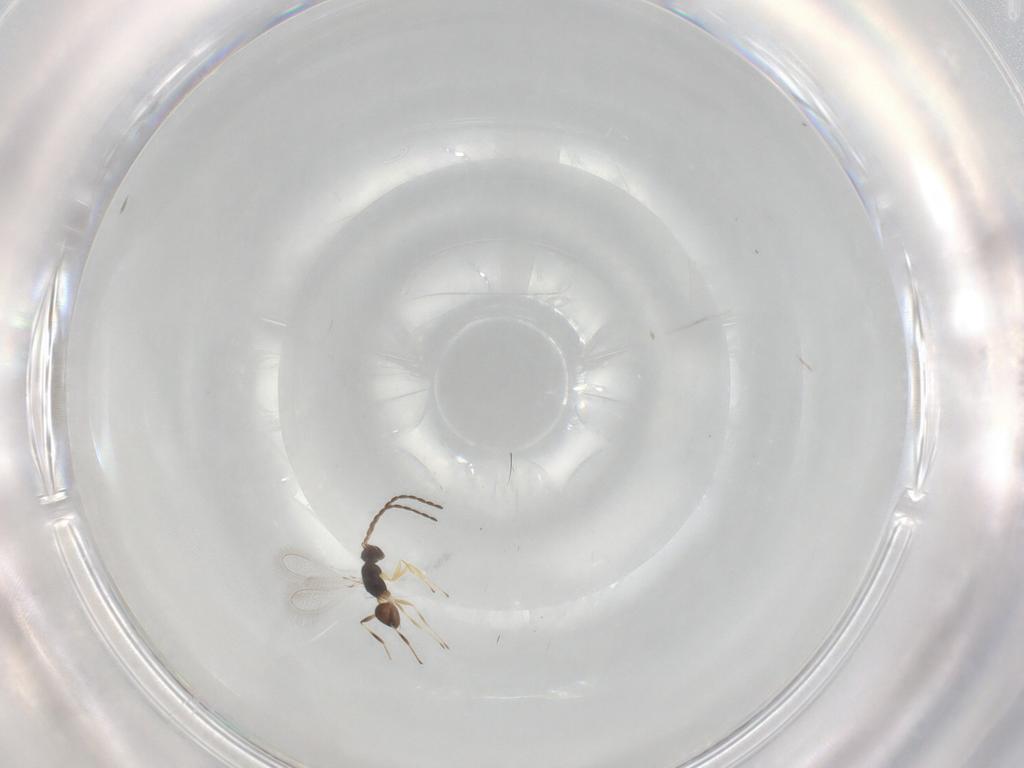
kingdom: Animalia
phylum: Arthropoda
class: Insecta
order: Hymenoptera
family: Mymaridae
